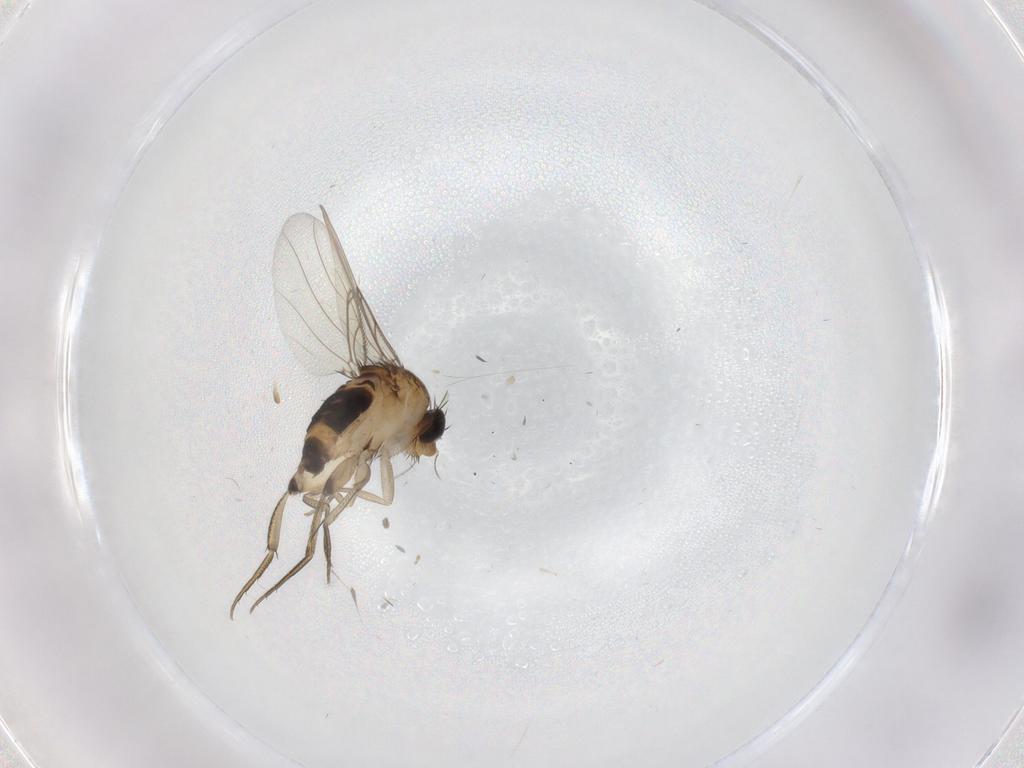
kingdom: Animalia
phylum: Arthropoda
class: Insecta
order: Diptera
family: Phoridae
